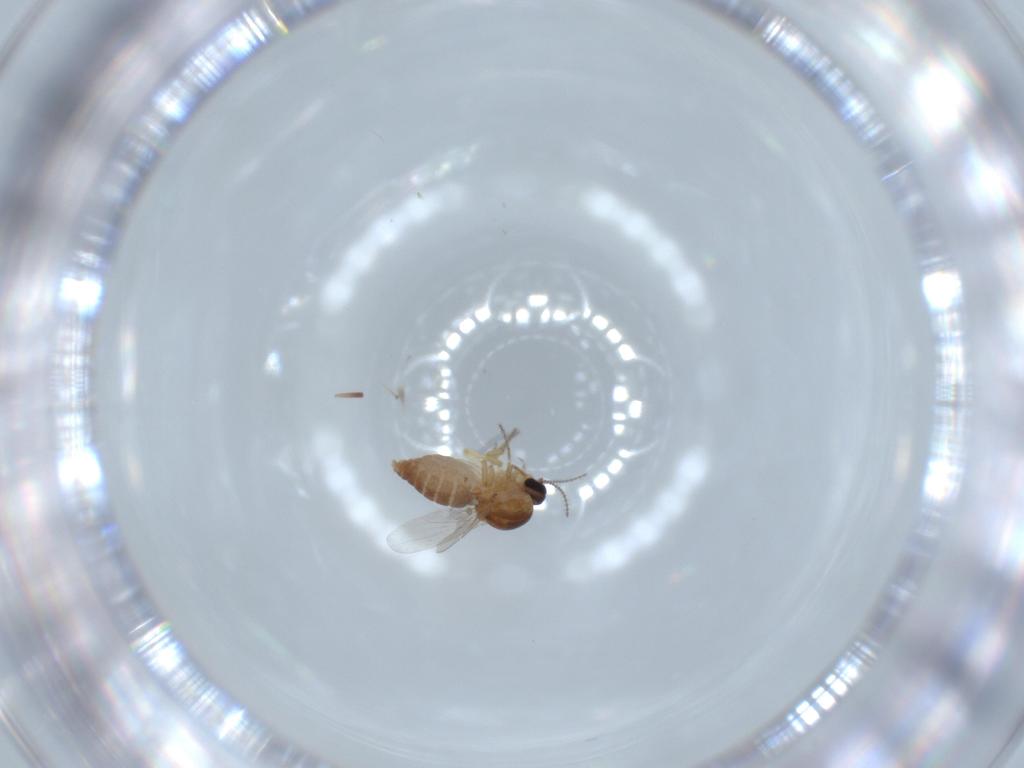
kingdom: Animalia
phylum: Arthropoda
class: Insecta
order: Diptera
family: Ceratopogonidae
